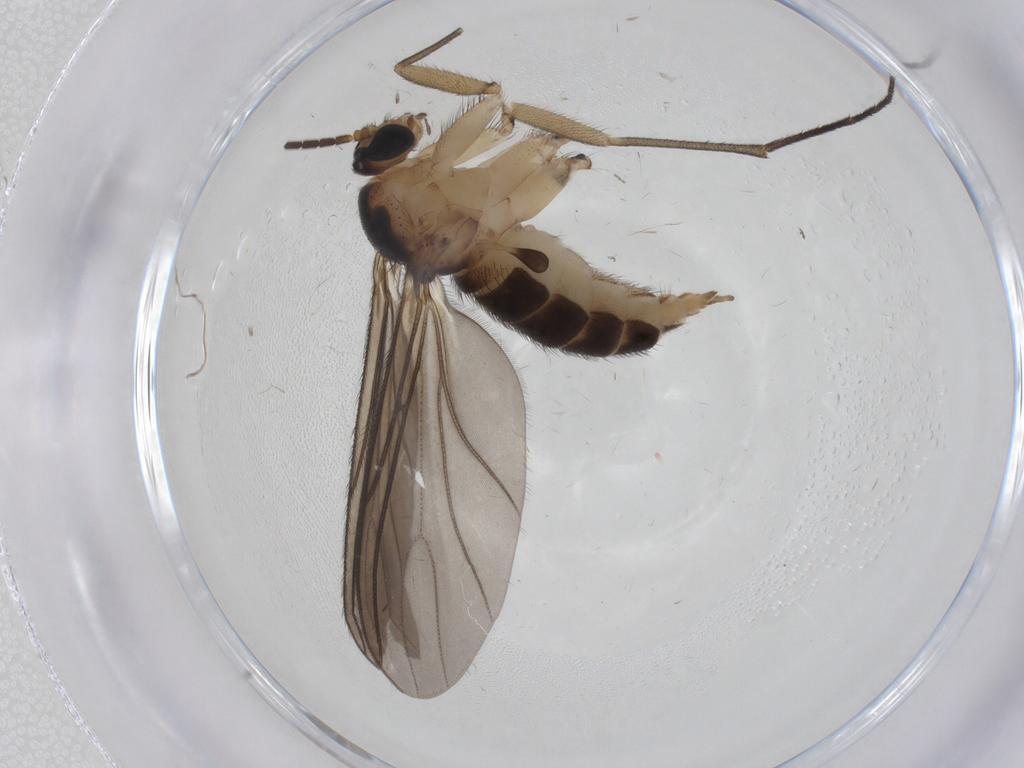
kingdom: Animalia
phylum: Arthropoda
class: Insecta
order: Diptera
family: Sciaridae
